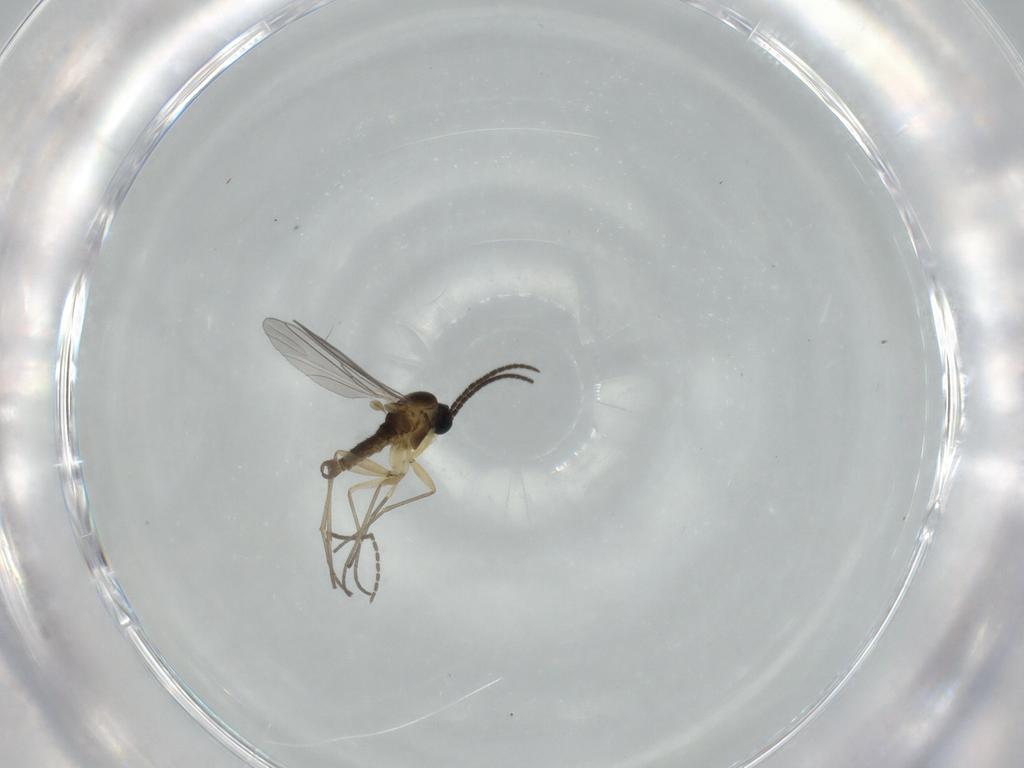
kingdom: Animalia
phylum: Arthropoda
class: Insecta
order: Diptera
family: Sciaridae
